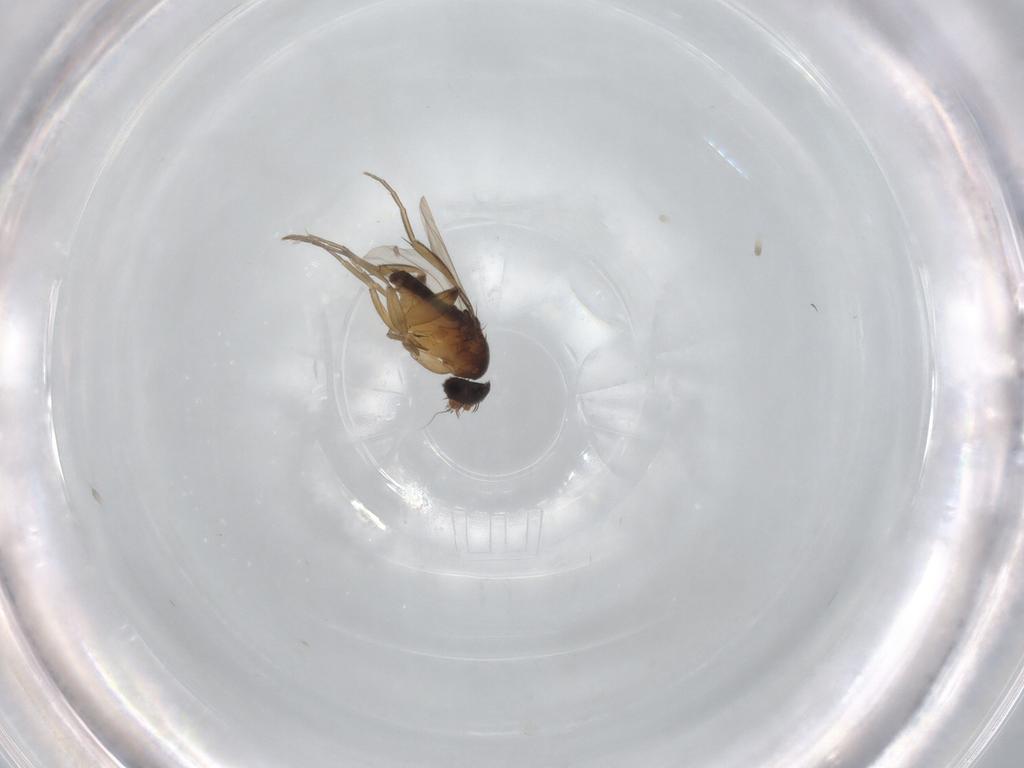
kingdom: Animalia
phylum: Arthropoda
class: Insecta
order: Diptera
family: Phoridae
